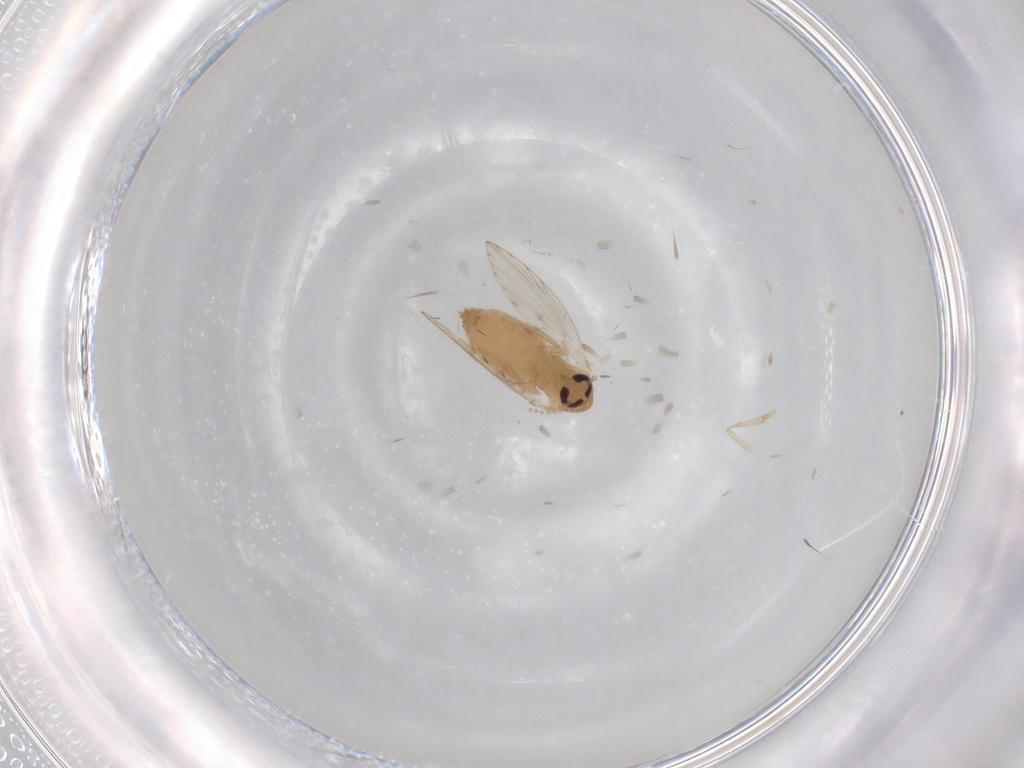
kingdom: Animalia
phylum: Arthropoda
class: Insecta
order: Diptera
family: Psychodidae
